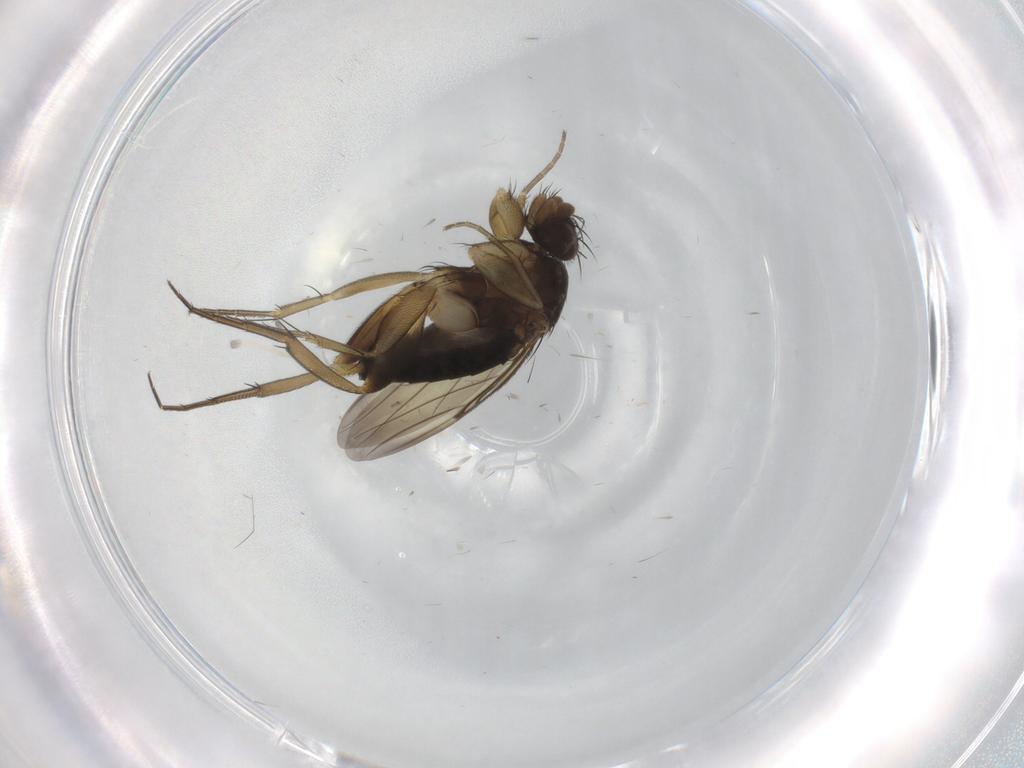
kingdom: Animalia
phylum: Arthropoda
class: Insecta
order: Diptera
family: Phoridae
